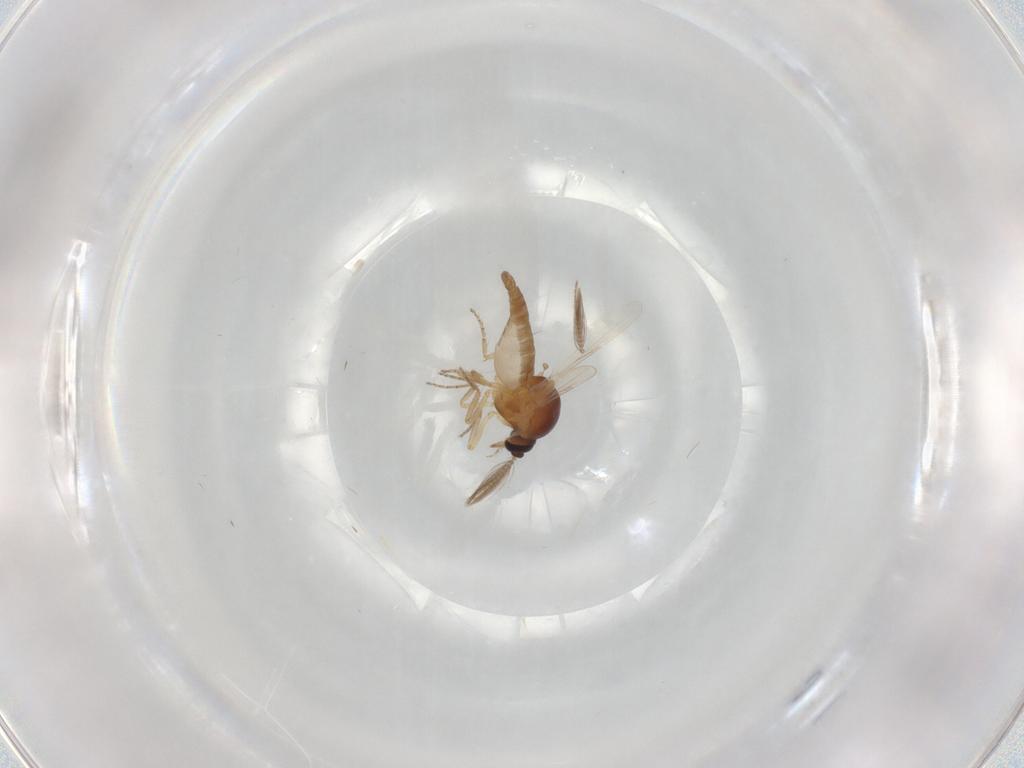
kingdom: Animalia
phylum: Arthropoda
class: Insecta
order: Diptera
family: Ceratopogonidae
